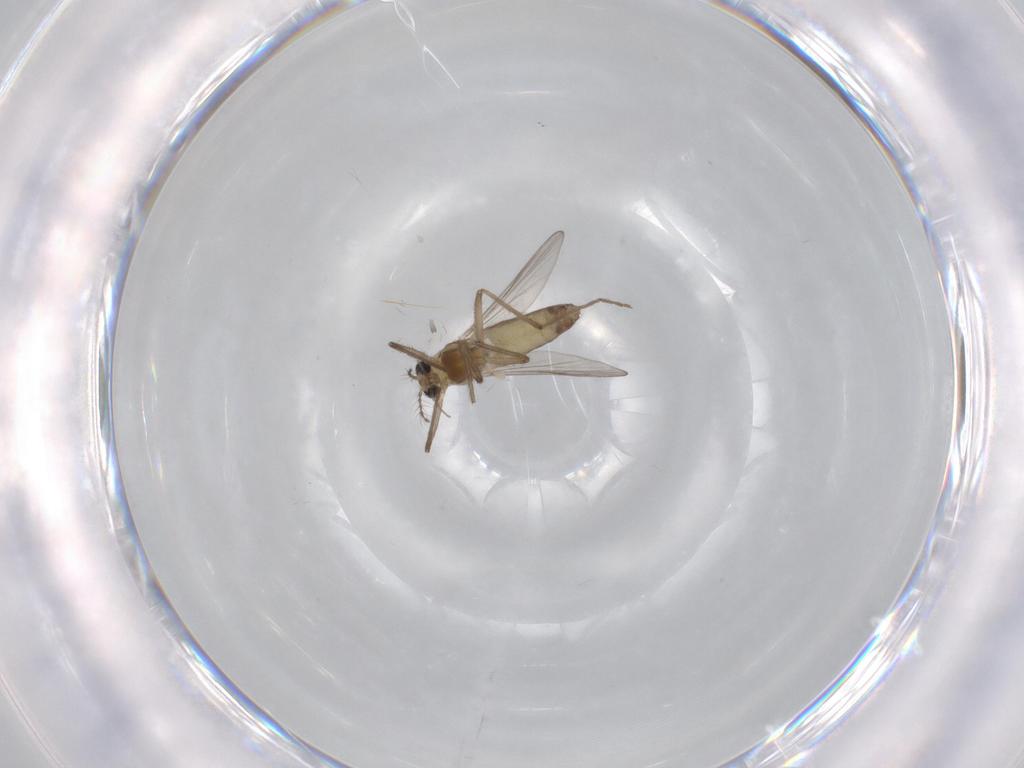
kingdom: Animalia
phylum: Arthropoda
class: Insecta
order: Diptera
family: Chironomidae
